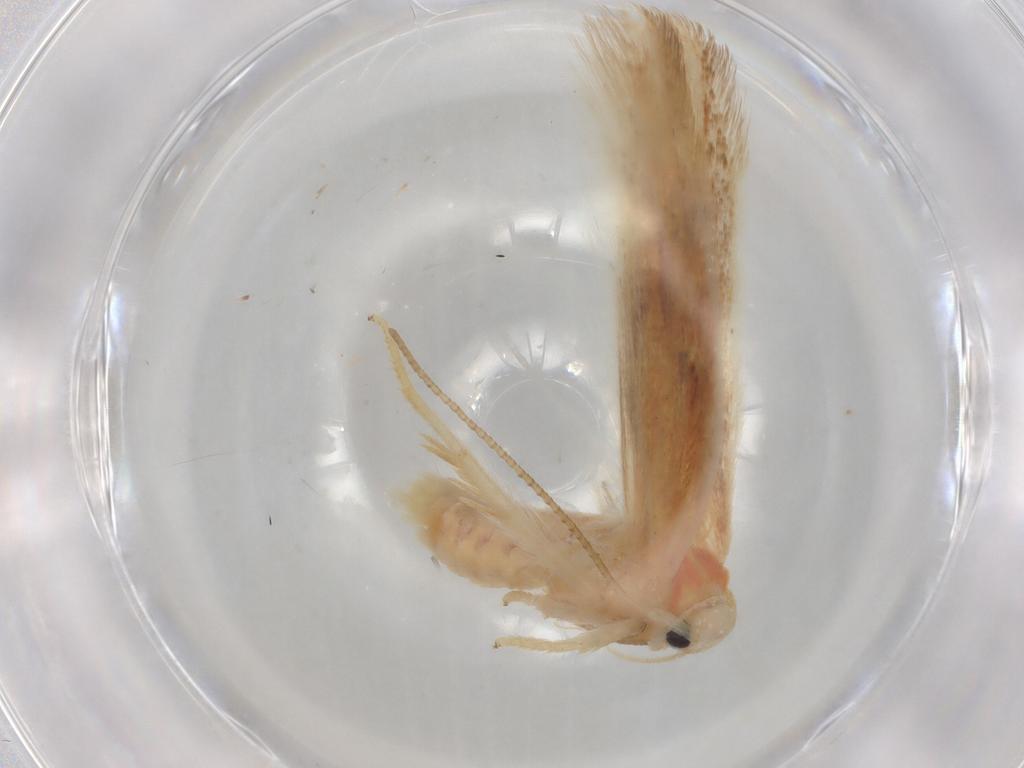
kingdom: Animalia
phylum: Arthropoda
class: Insecta
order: Lepidoptera
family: Geometridae
